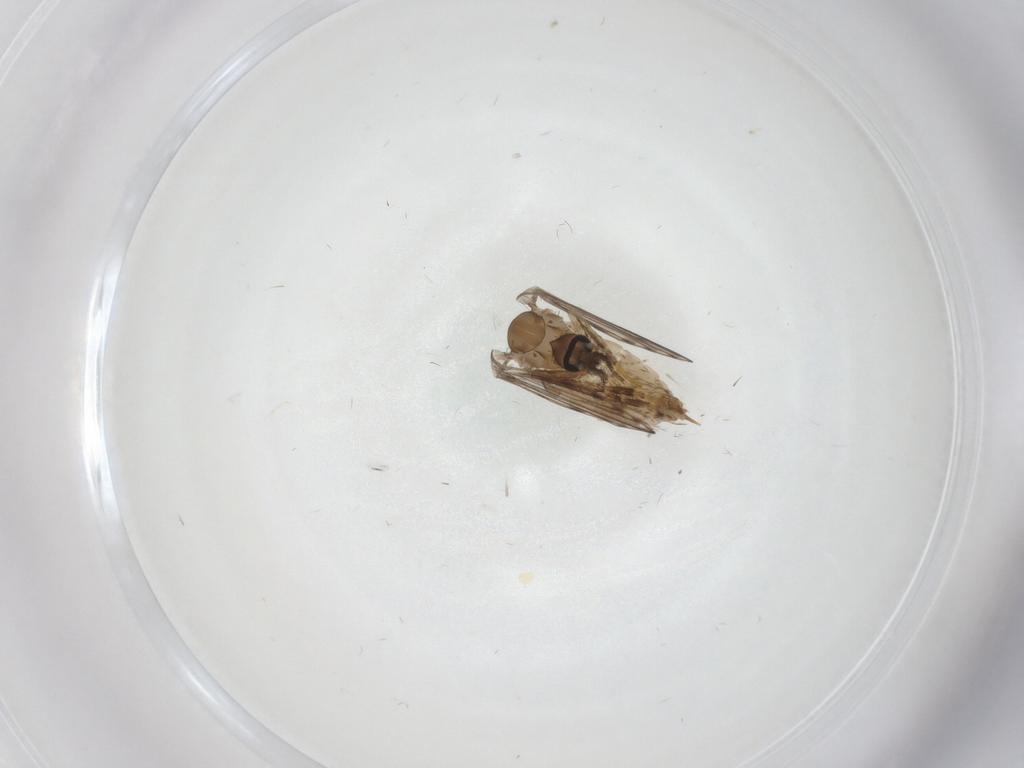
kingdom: Animalia
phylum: Arthropoda
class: Insecta
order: Diptera
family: Psychodidae
